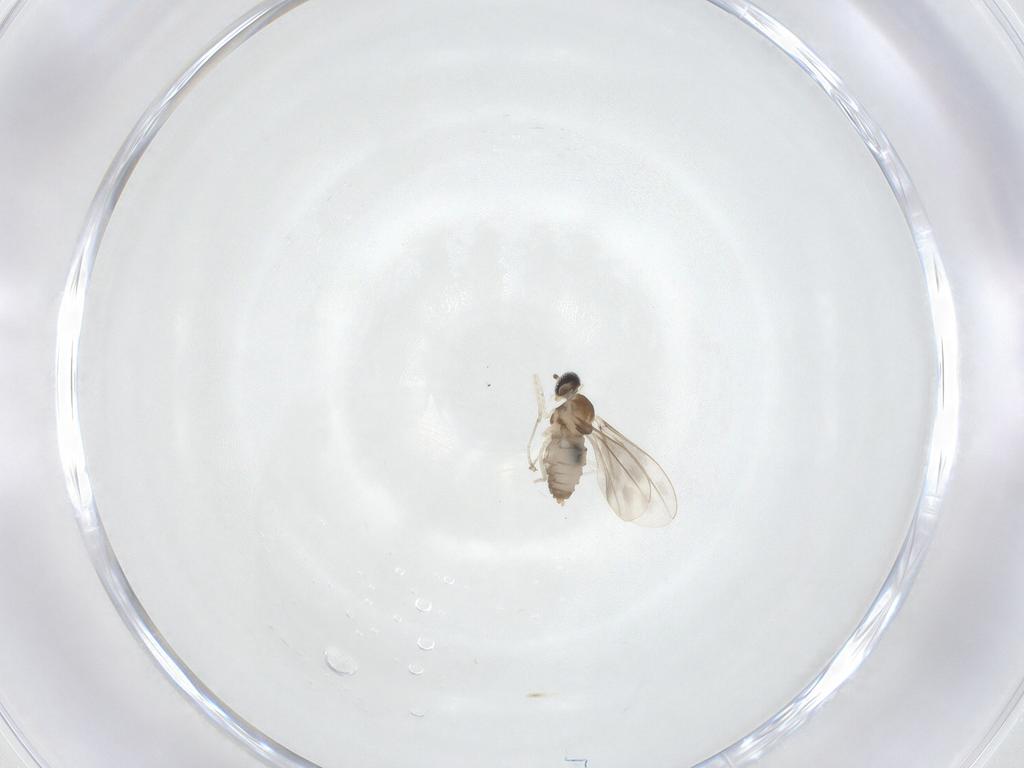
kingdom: Animalia
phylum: Arthropoda
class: Insecta
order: Diptera
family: Cecidomyiidae
